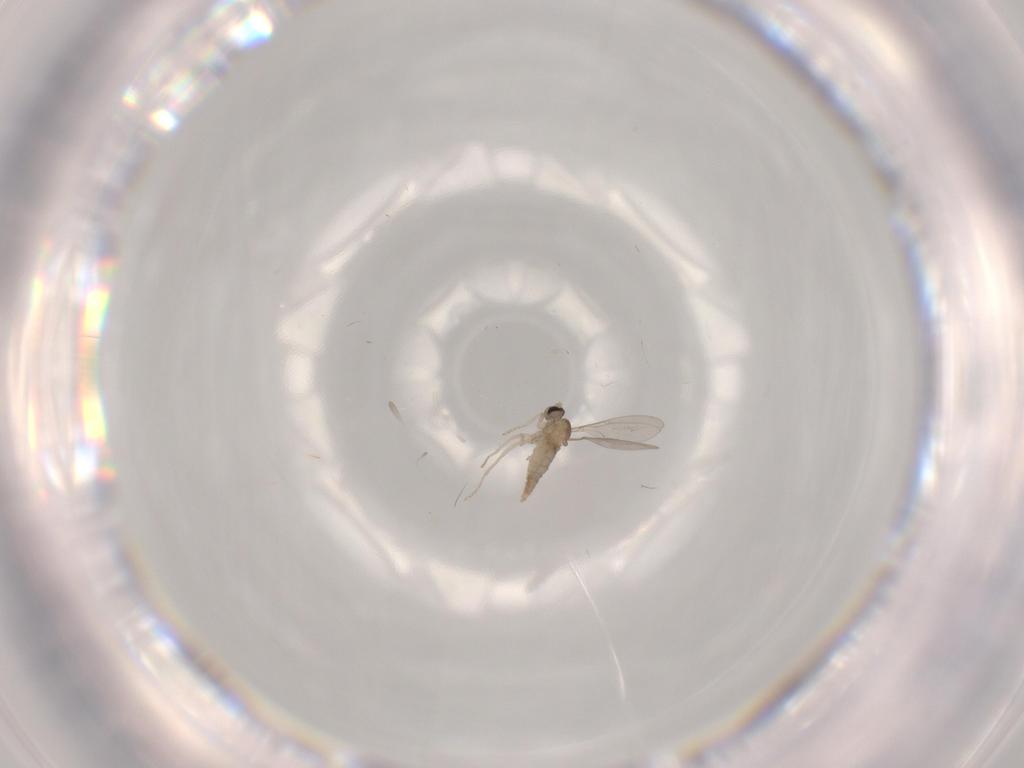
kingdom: Animalia
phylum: Arthropoda
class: Insecta
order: Diptera
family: Cecidomyiidae
